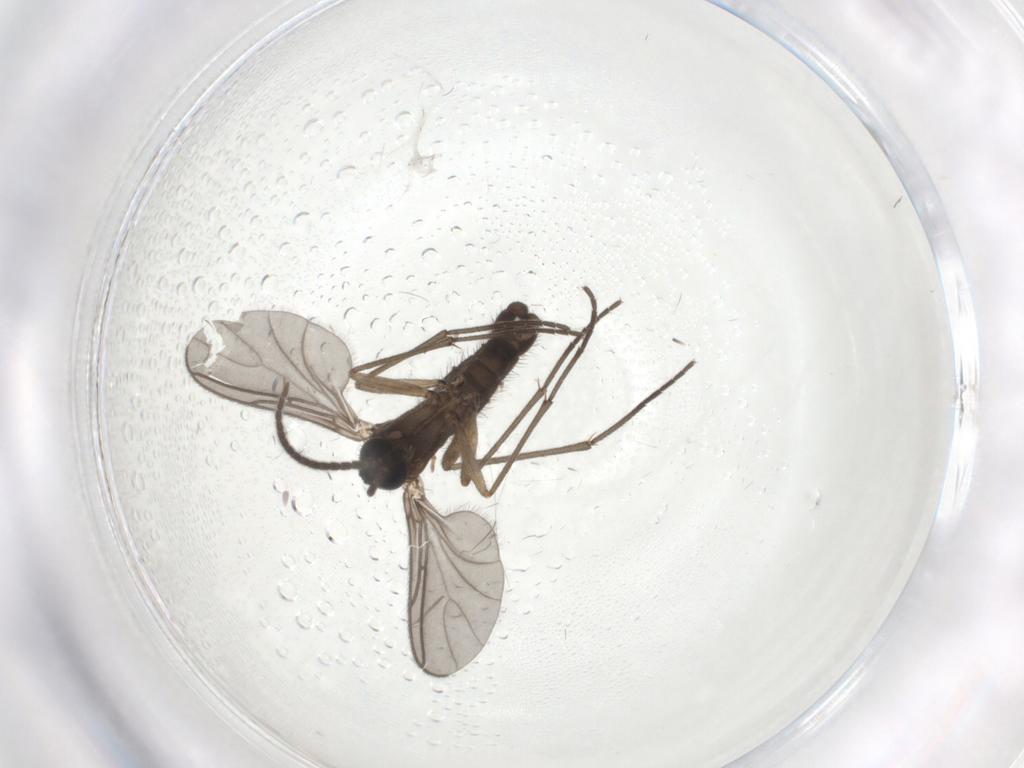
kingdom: Animalia
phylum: Arthropoda
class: Insecta
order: Diptera
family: Sciaridae
